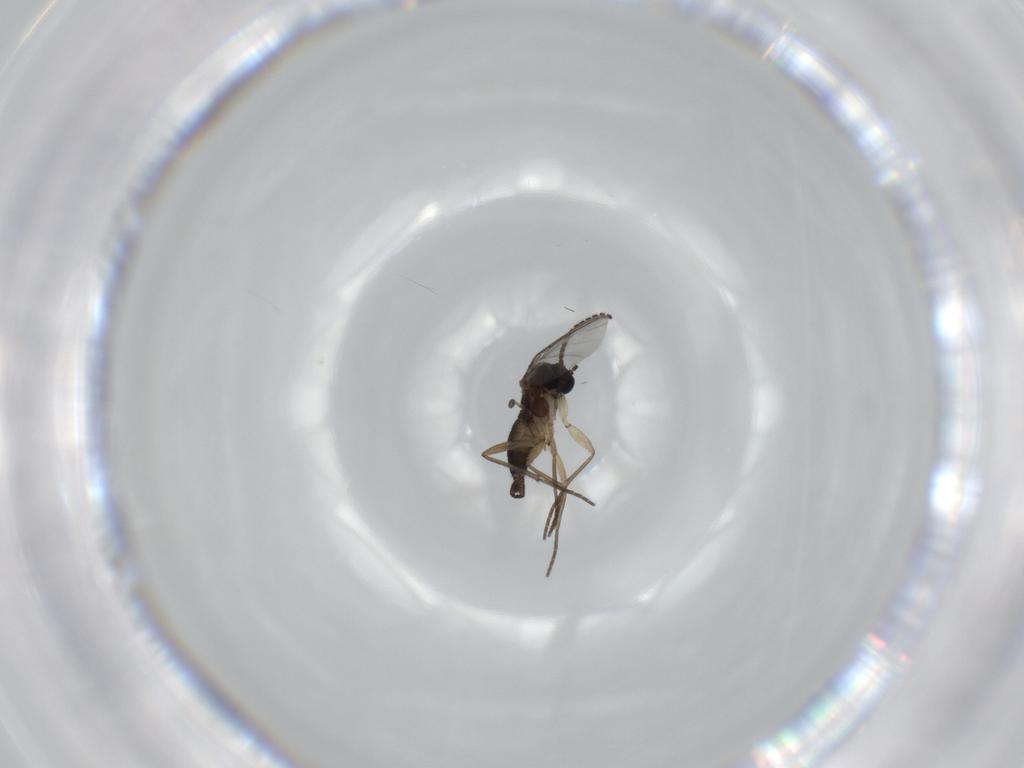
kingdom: Animalia
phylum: Arthropoda
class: Insecta
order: Diptera
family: Sciaridae
